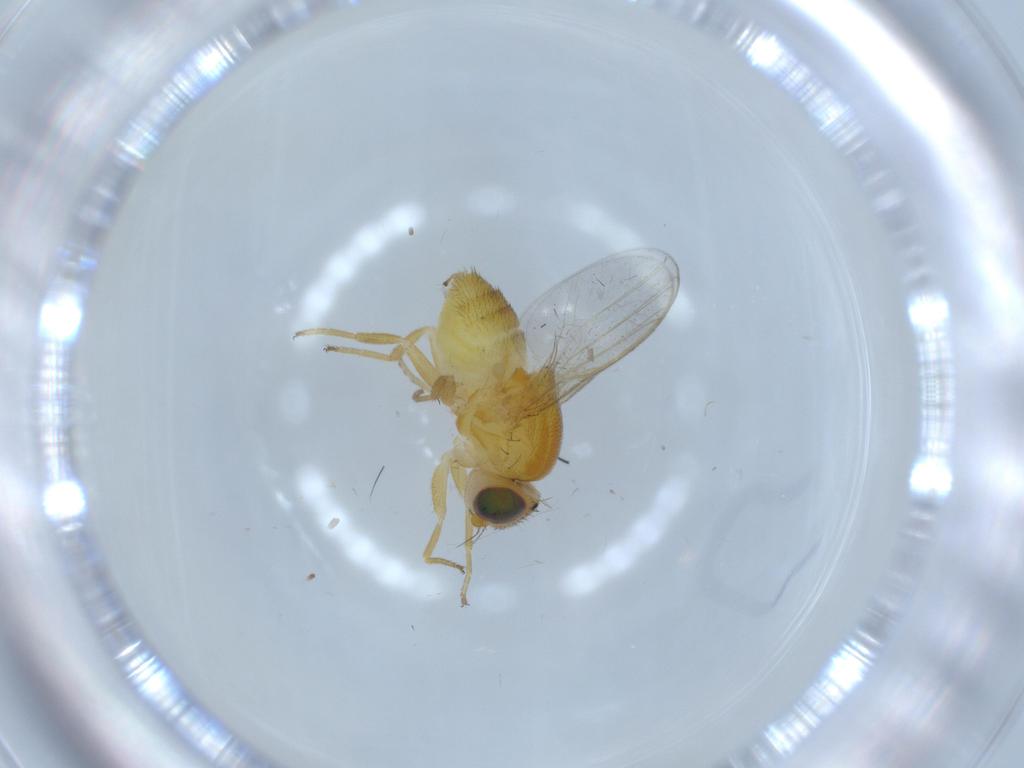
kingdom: Animalia
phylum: Arthropoda
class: Insecta
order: Diptera
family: Chloropidae
